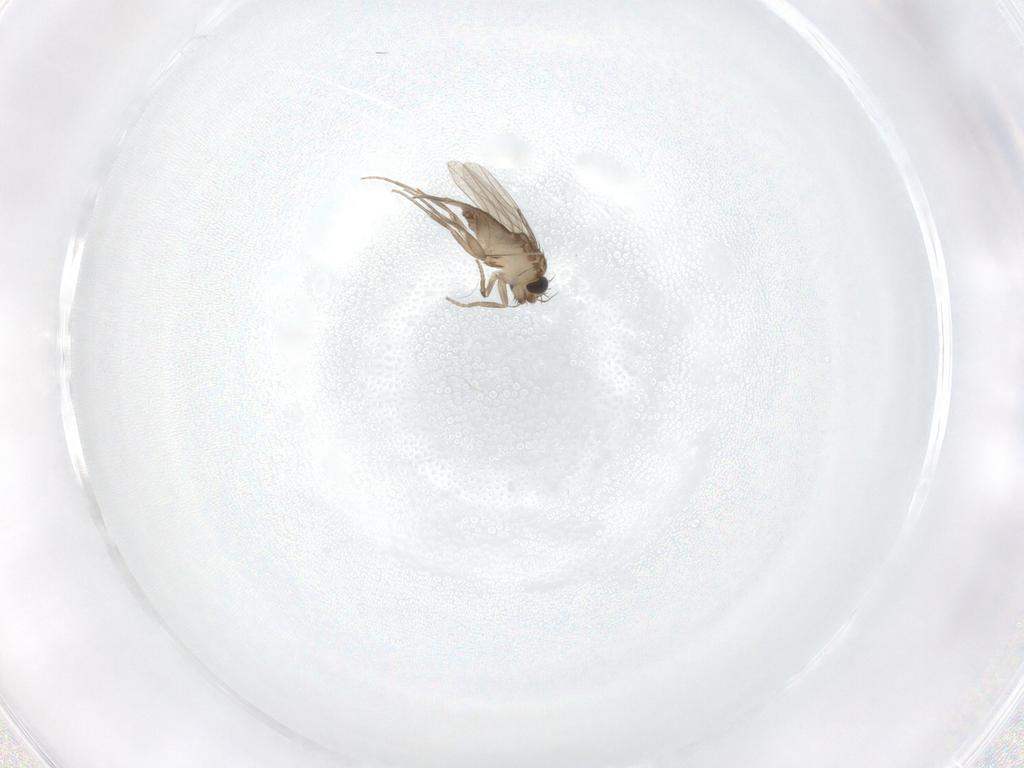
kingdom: Animalia
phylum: Arthropoda
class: Insecta
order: Diptera
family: Phoridae
